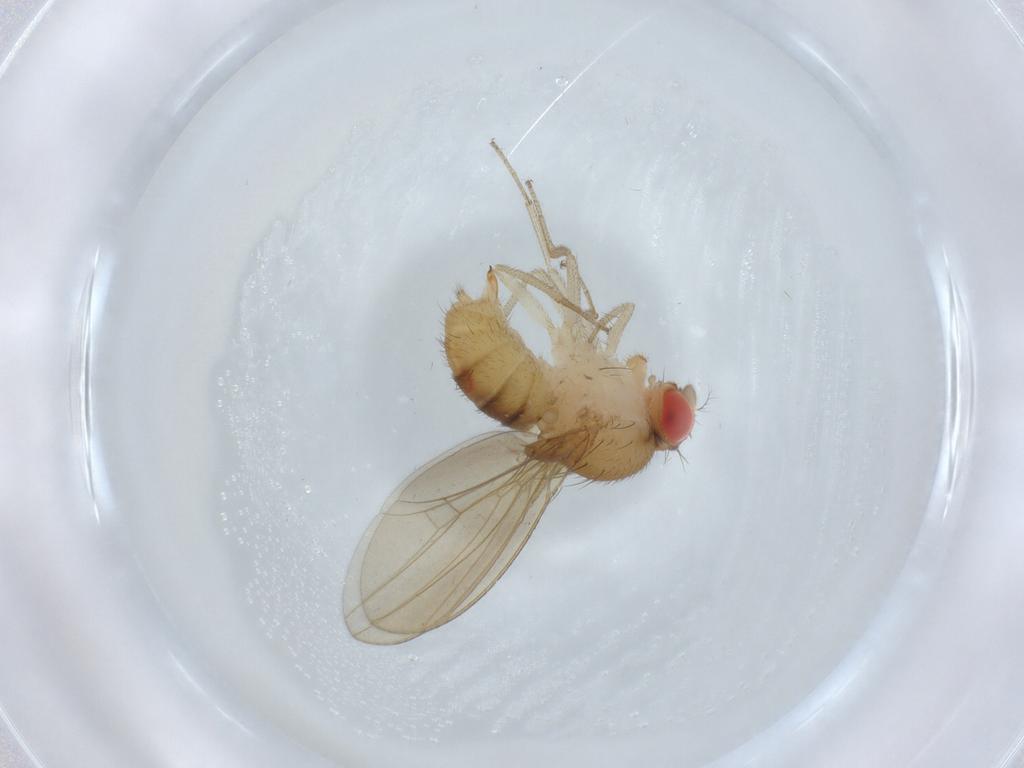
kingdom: Animalia
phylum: Arthropoda
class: Insecta
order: Diptera
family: Drosophilidae
